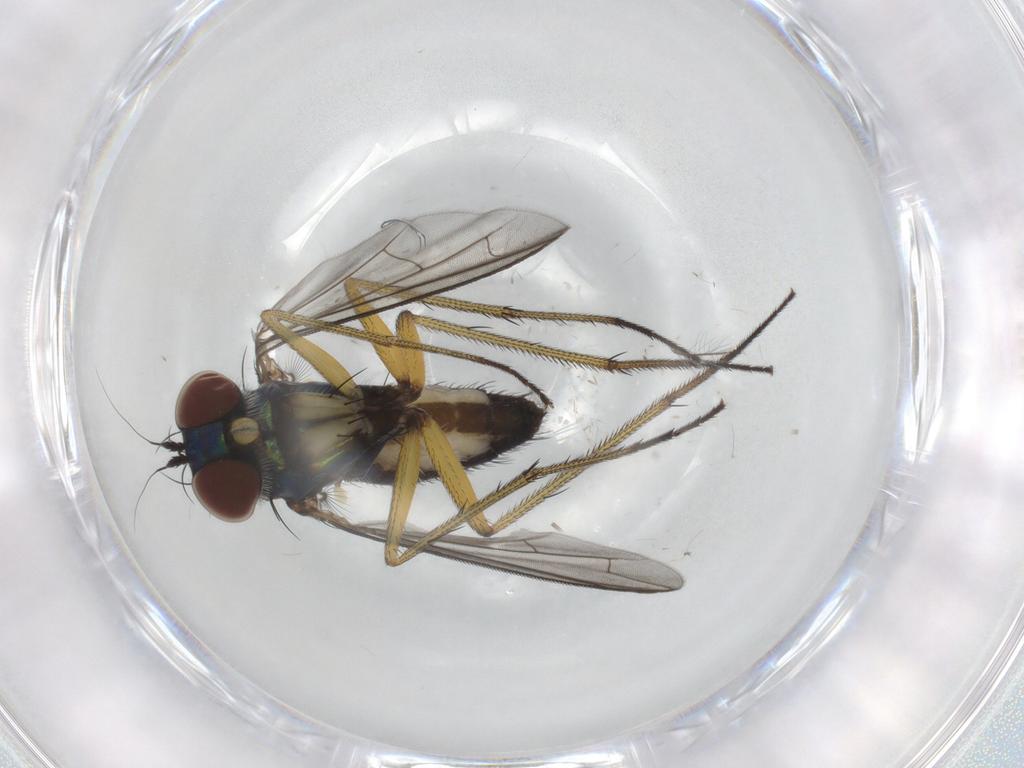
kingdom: Animalia
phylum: Arthropoda
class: Insecta
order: Diptera
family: Dolichopodidae
